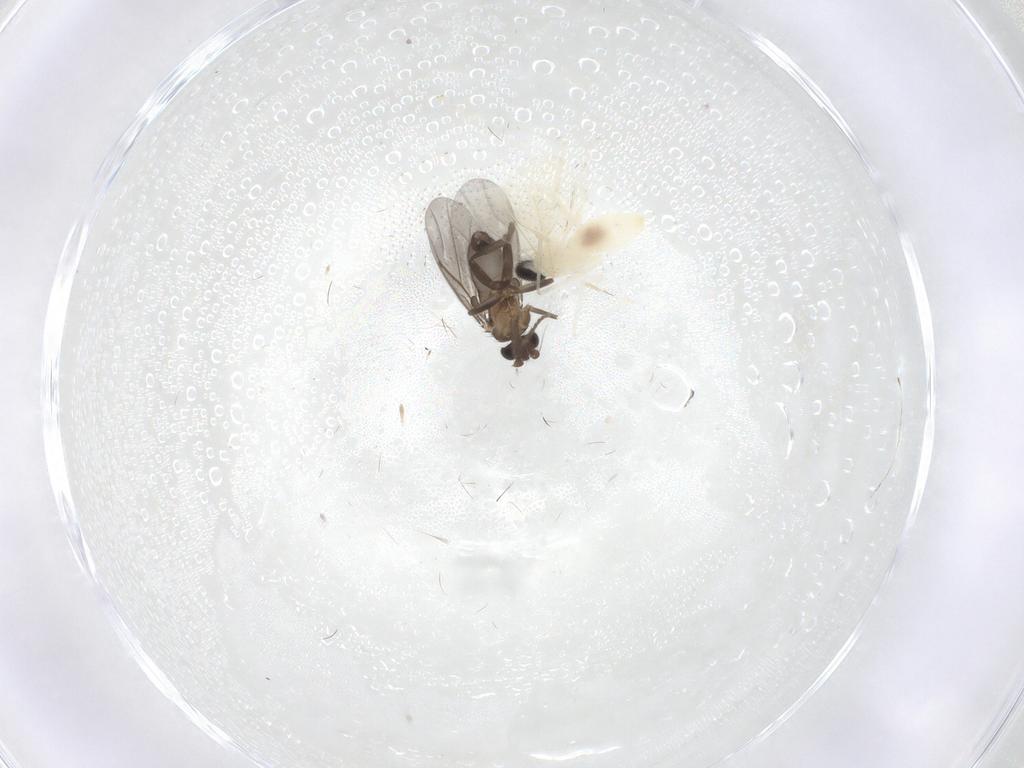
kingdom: Animalia
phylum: Arthropoda
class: Insecta
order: Diptera
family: Phoridae
